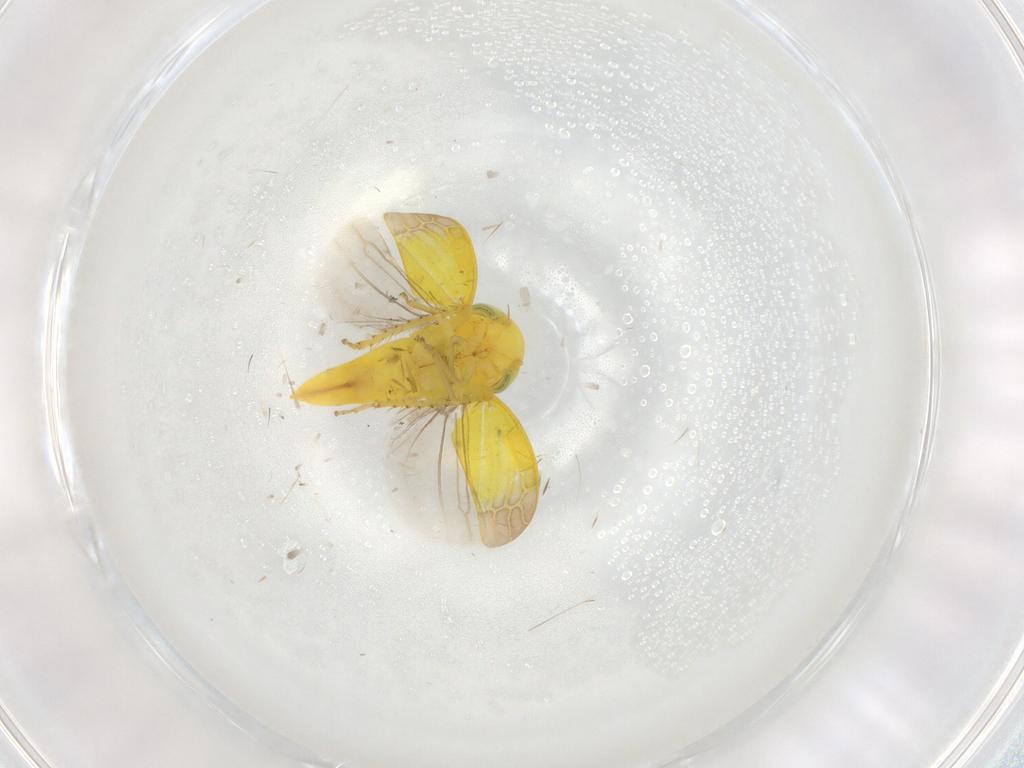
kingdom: Animalia
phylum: Arthropoda
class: Insecta
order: Hemiptera
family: Cicadellidae
